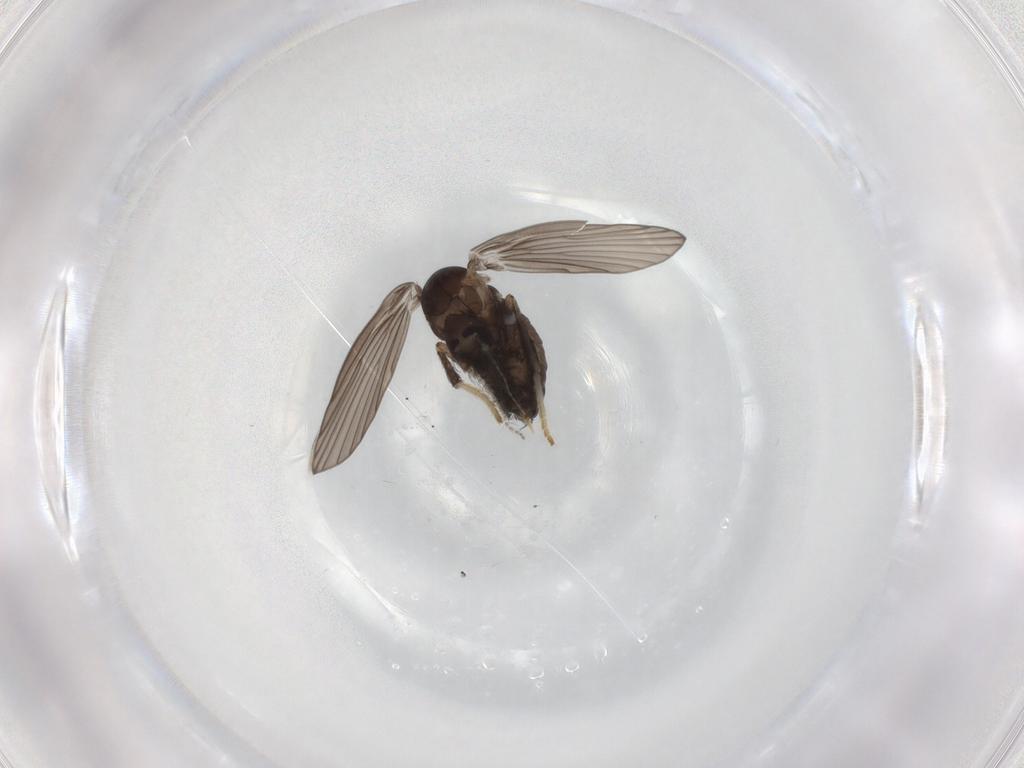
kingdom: Animalia
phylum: Arthropoda
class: Insecta
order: Diptera
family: Psychodidae
